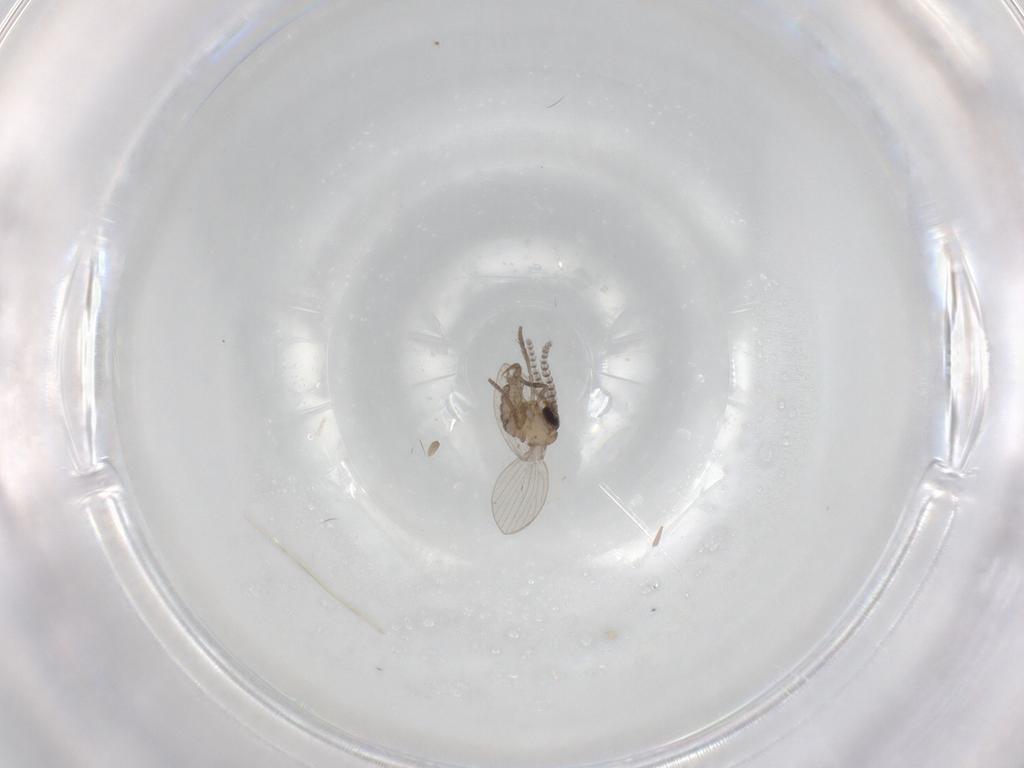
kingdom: Animalia
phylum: Arthropoda
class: Insecta
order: Diptera
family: Psychodidae
